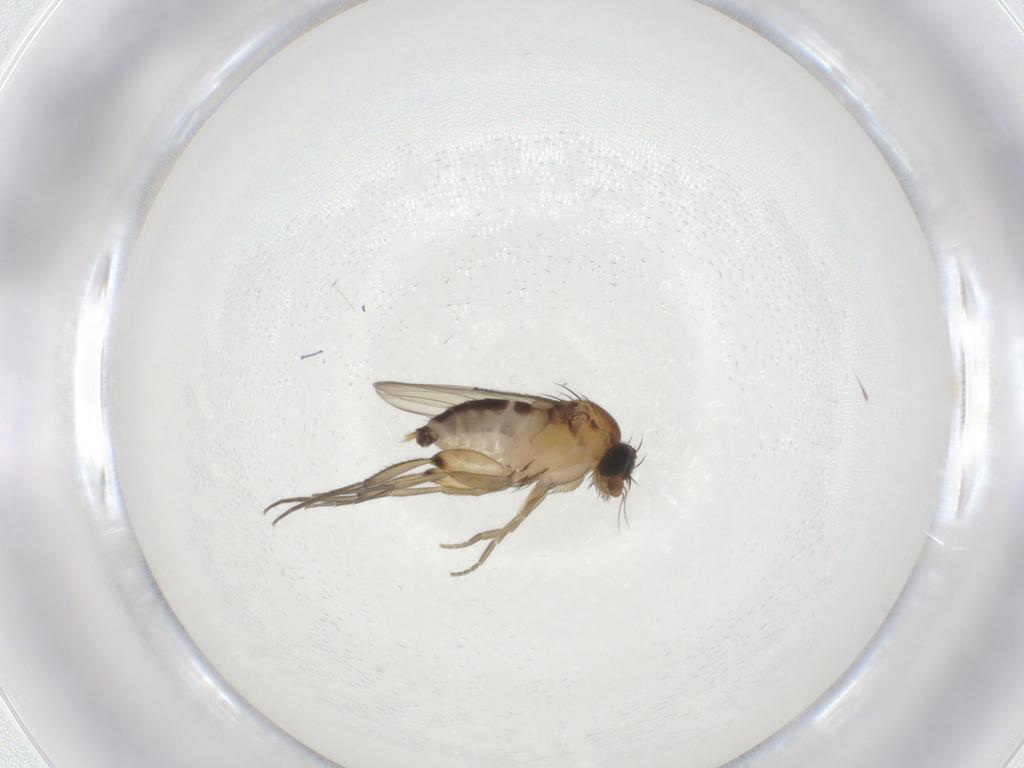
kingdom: Animalia
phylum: Arthropoda
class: Insecta
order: Diptera
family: Phoridae
